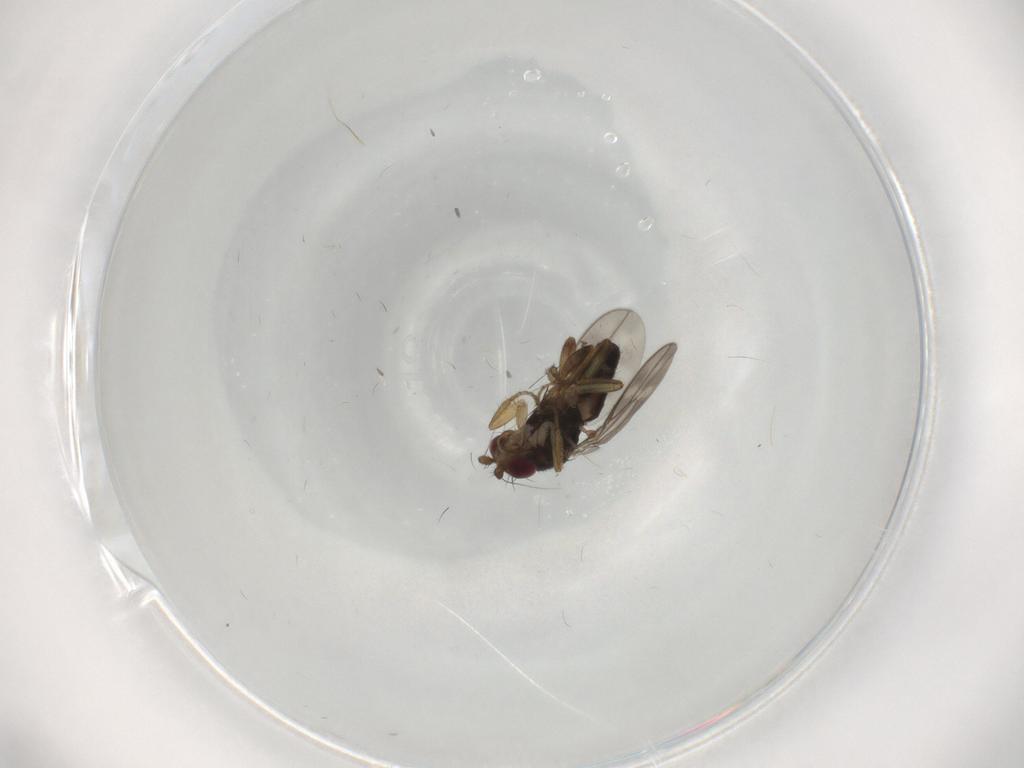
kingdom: Animalia
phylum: Arthropoda
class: Insecta
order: Diptera
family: Sphaeroceridae
